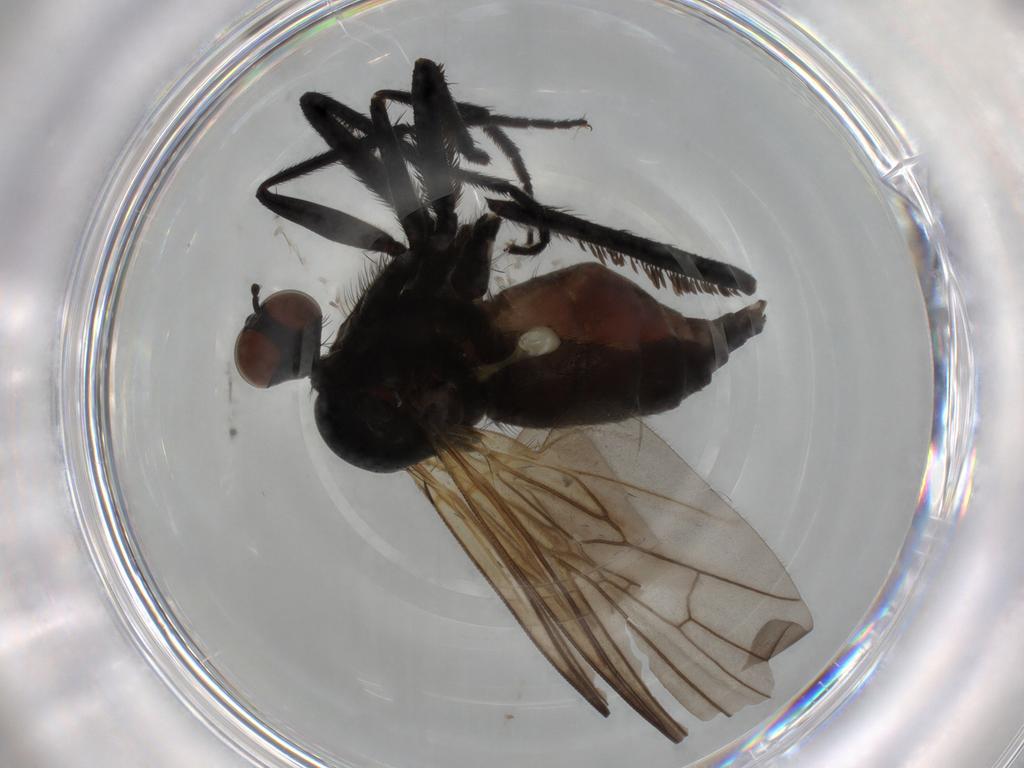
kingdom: Animalia
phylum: Arthropoda
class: Insecta
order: Diptera
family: Empididae
